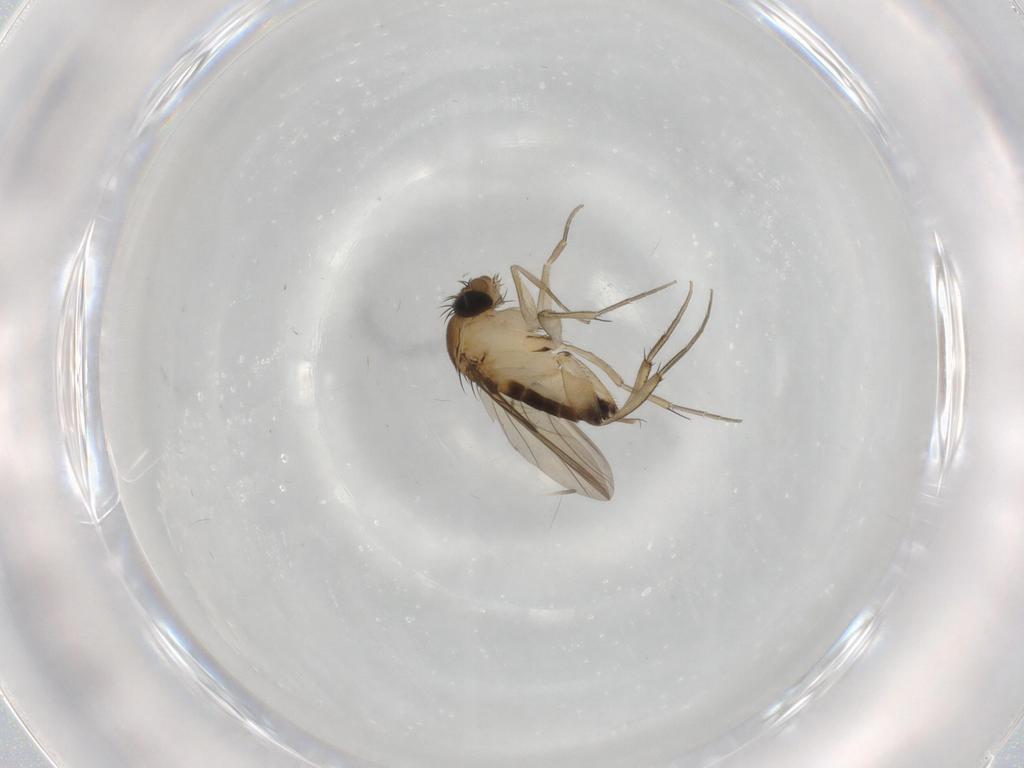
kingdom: Animalia
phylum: Arthropoda
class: Insecta
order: Diptera
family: Phoridae
